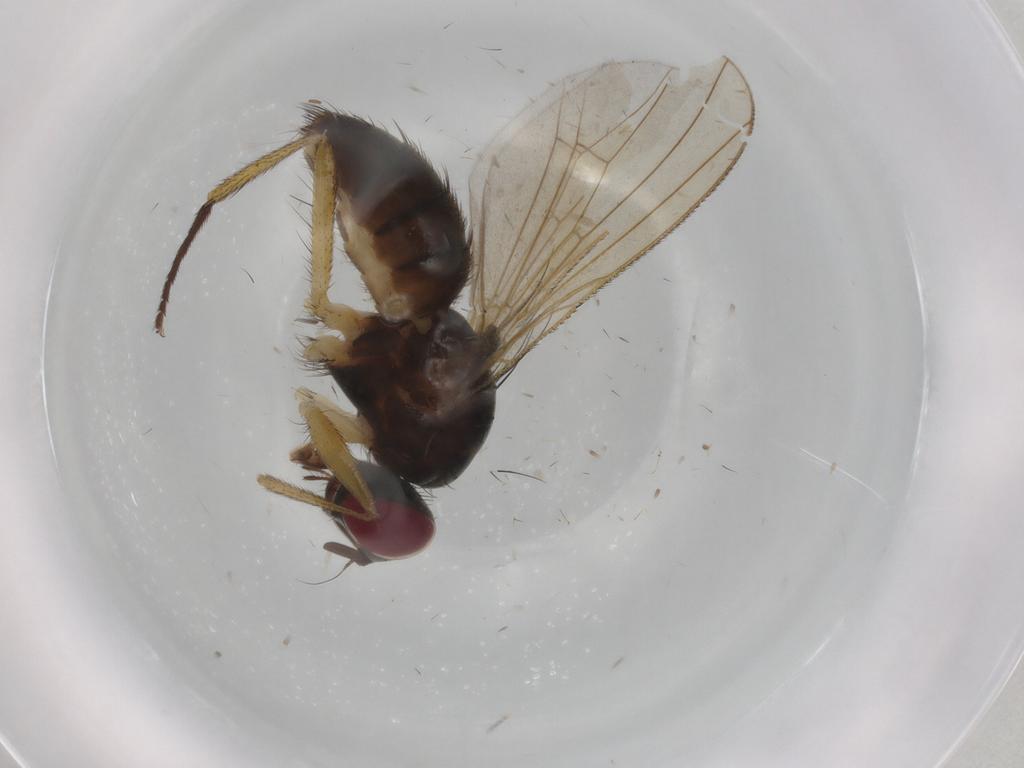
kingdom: Animalia
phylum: Arthropoda
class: Insecta
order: Diptera
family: Muscidae
